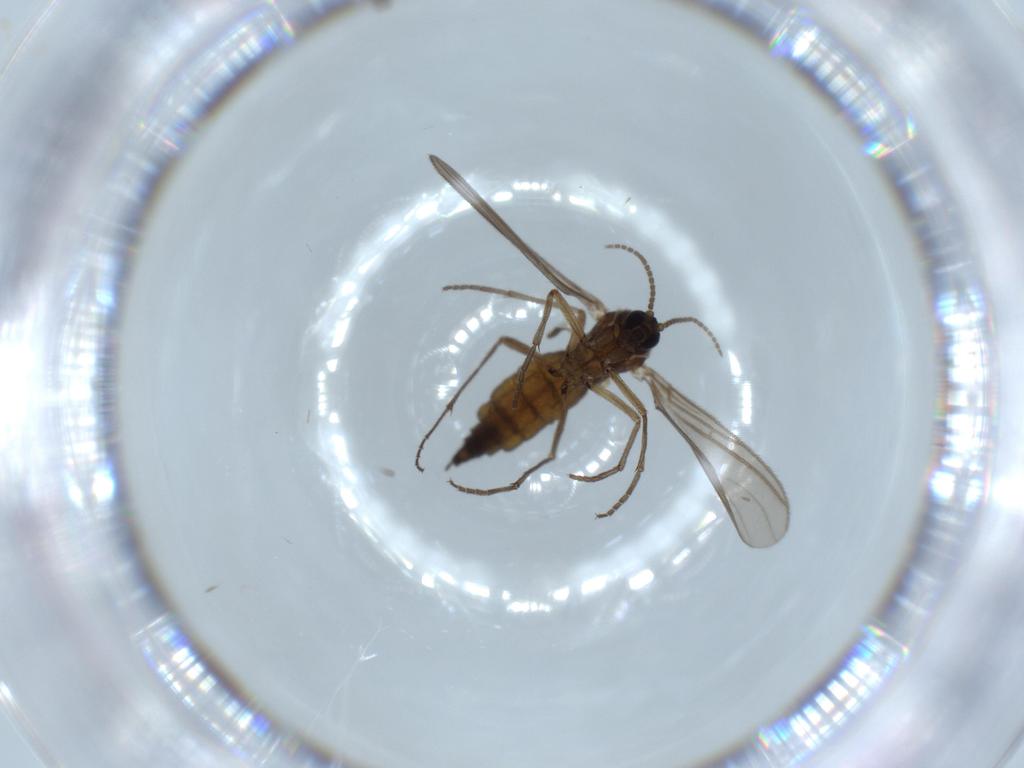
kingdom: Animalia
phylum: Arthropoda
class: Insecta
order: Diptera
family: Sciaridae
